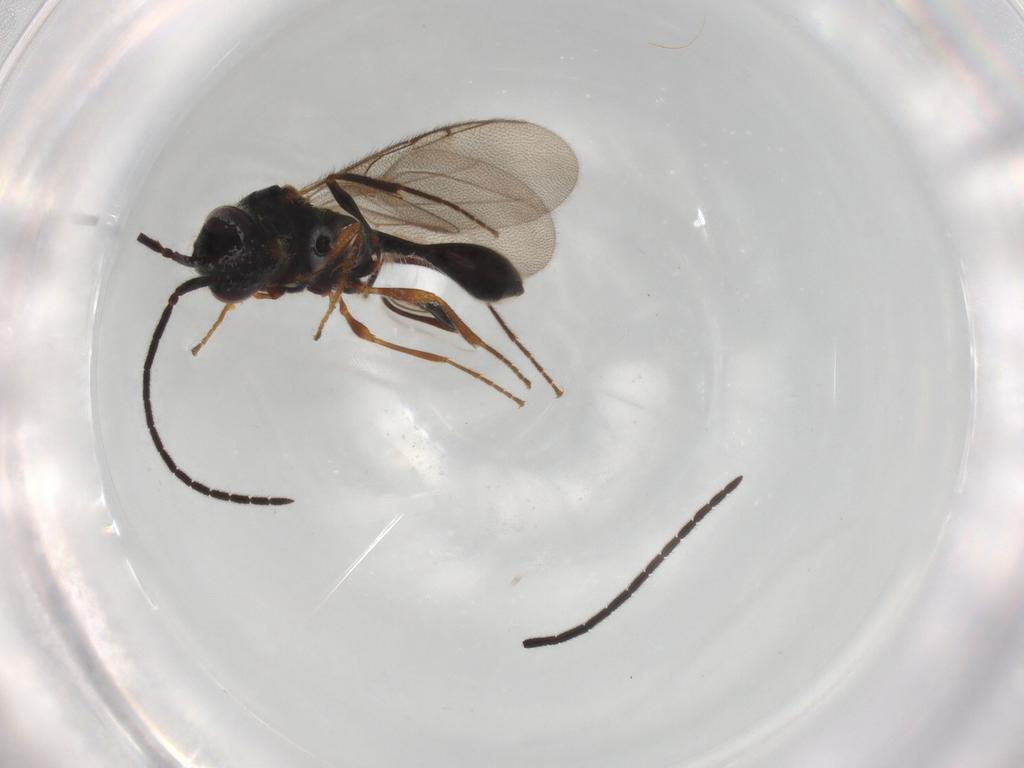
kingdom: Animalia
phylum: Arthropoda
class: Insecta
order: Hymenoptera
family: Diapriidae
